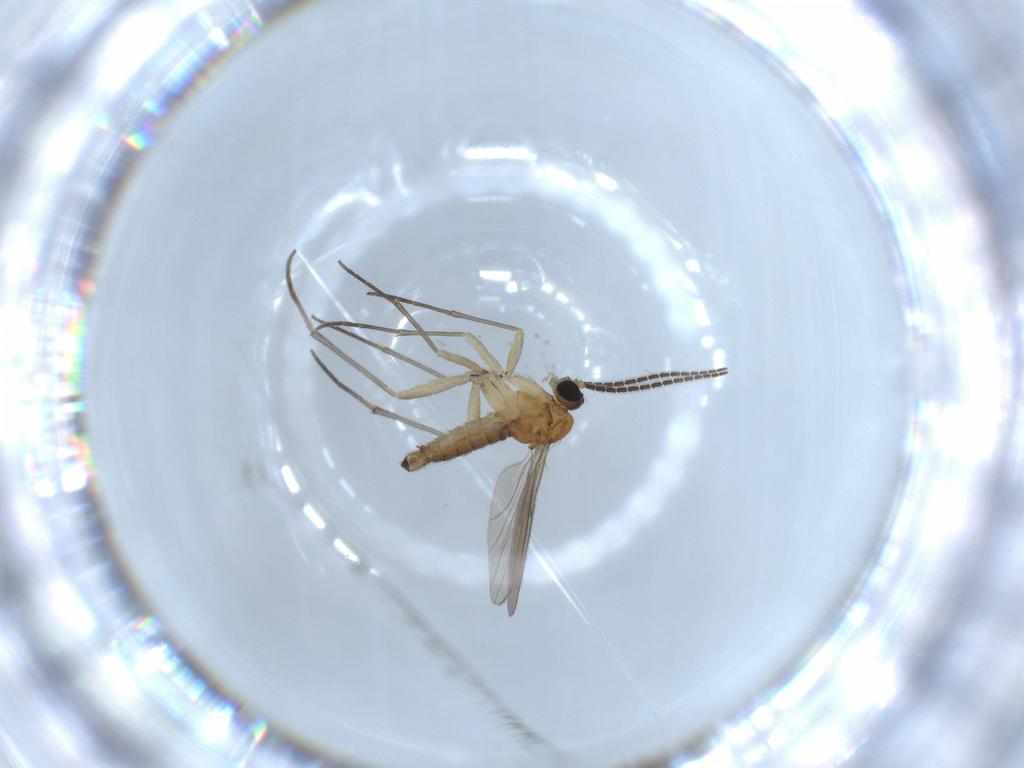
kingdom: Animalia
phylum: Arthropoda
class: Insecta
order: Diptera
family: Sciaridae
